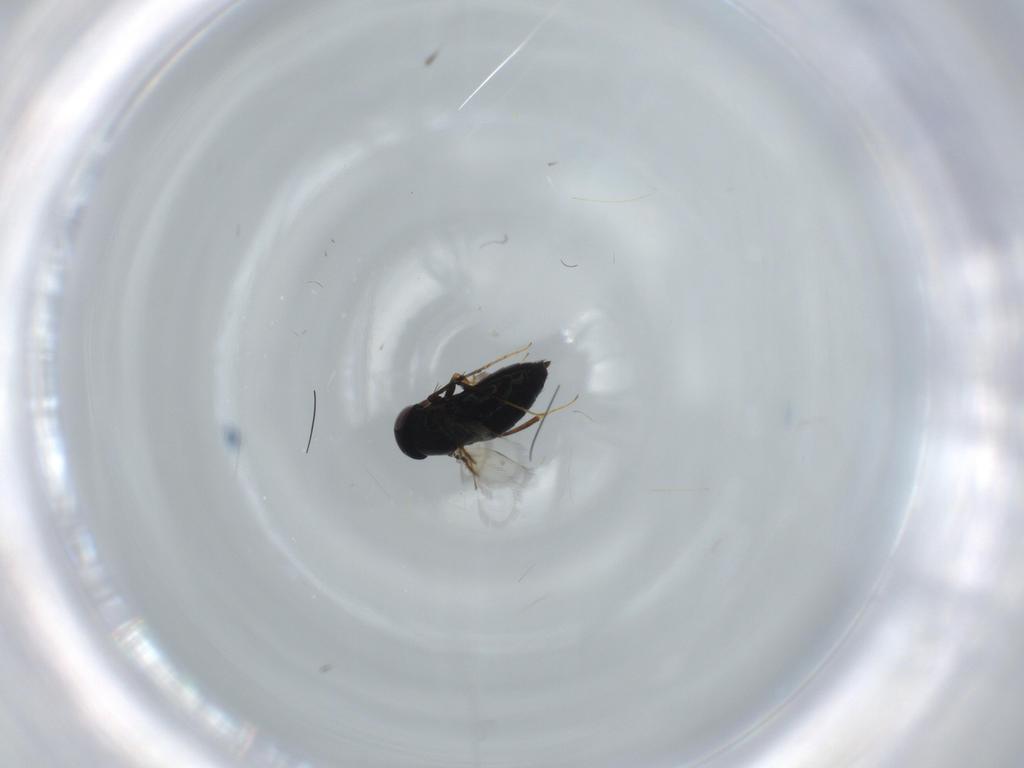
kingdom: Animalia
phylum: Arthropoda
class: Insecta
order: Hymenoptera
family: Signiphoridae
